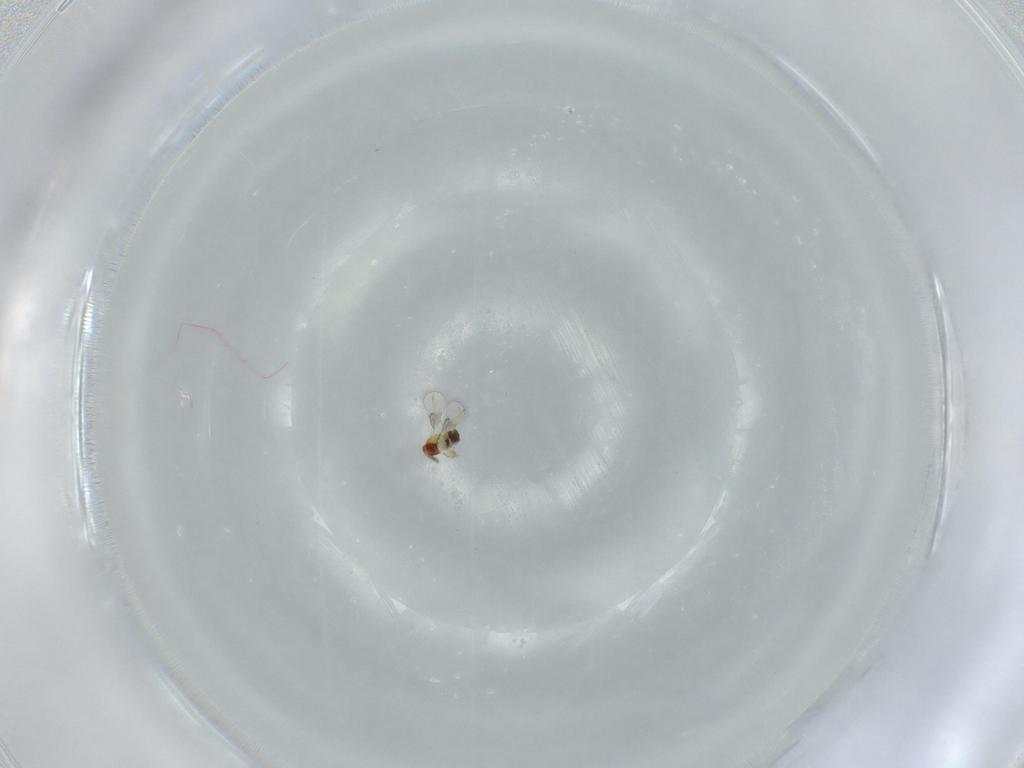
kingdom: Animalia
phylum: Arthropoda
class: Insecta
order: Hymenoptera
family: Trichogrammatidae
